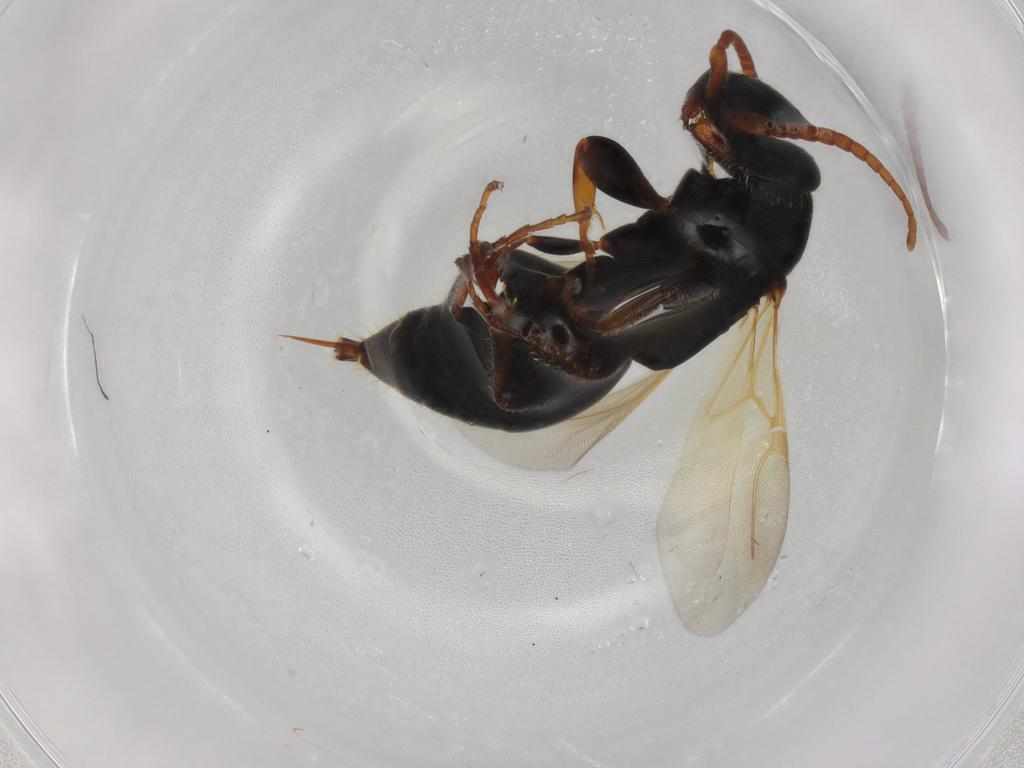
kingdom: Animalia
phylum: Arthropoda
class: Insecta
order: Hymenoptera
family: Bethylidae
